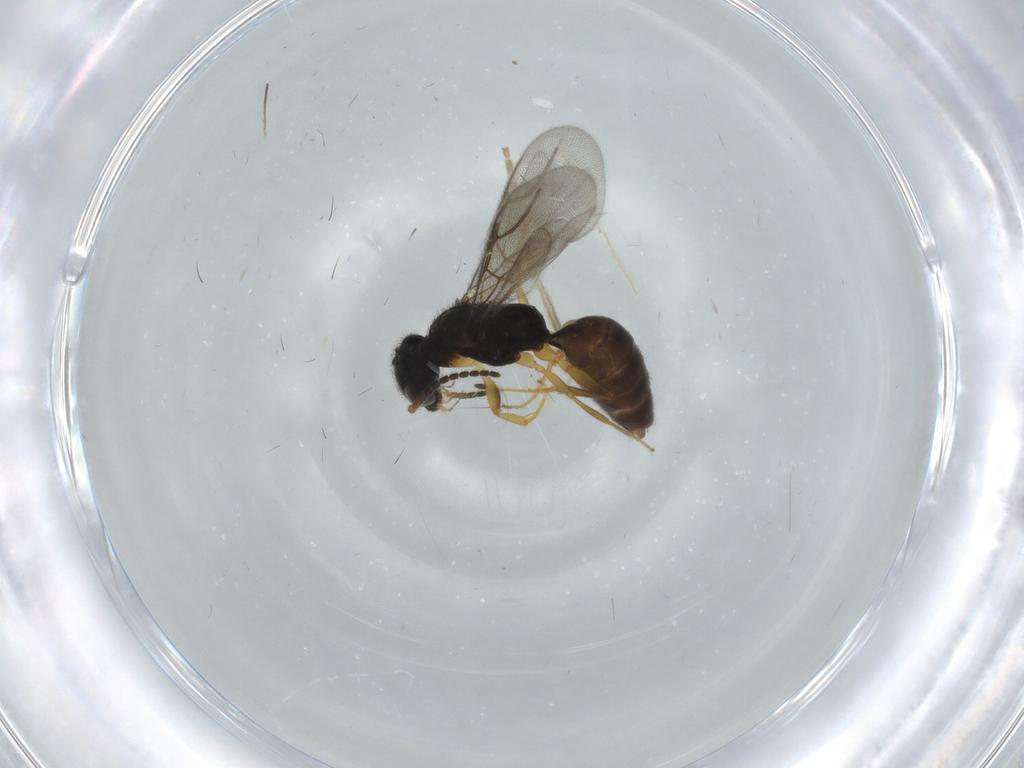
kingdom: Animalia
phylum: Arthropoda
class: Insecta
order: Hymenoptera
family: Bethylidae
